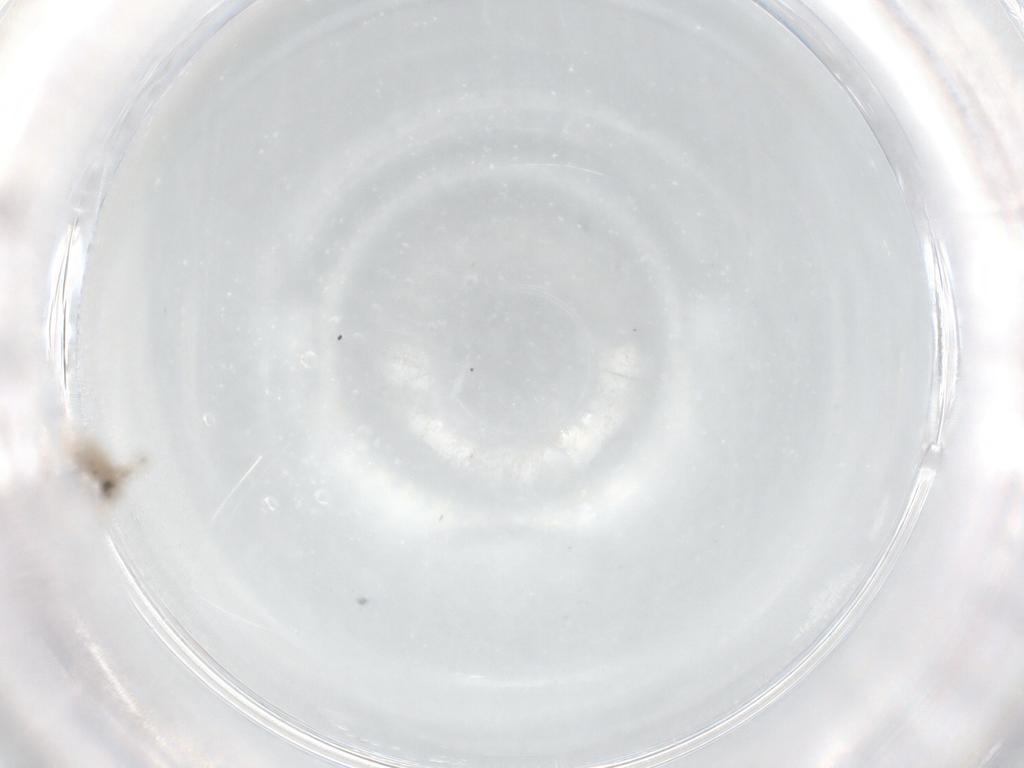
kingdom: Animalia
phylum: Arthropoda
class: Insecta
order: Diptera
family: Cecidomyiidae
